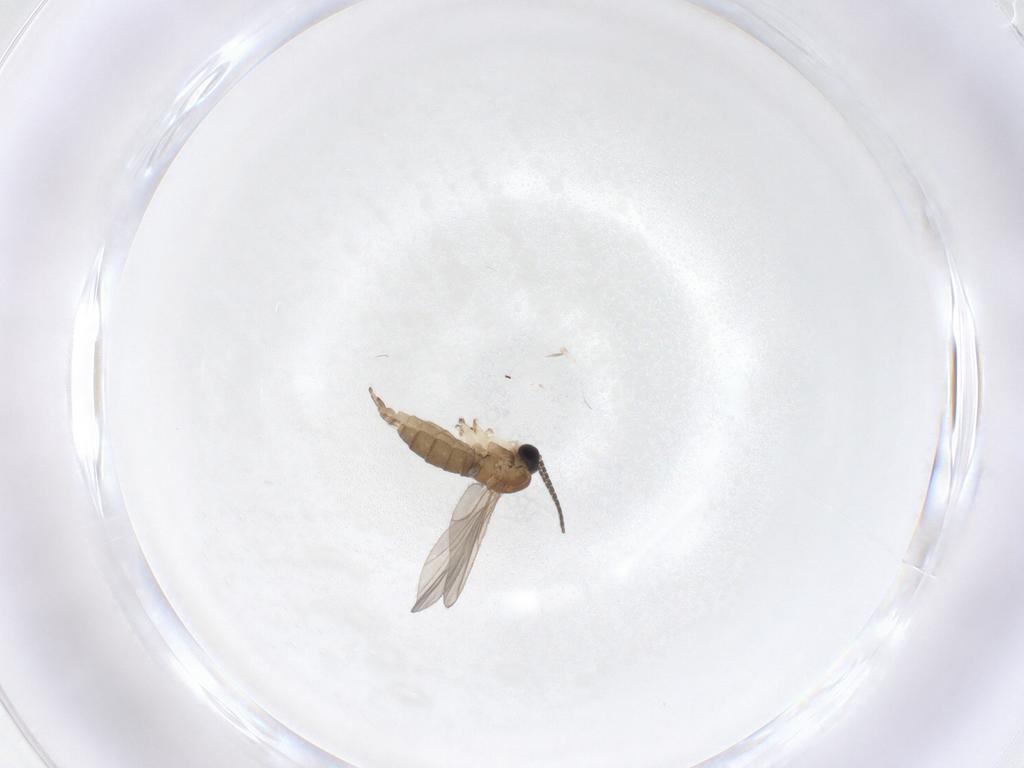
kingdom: Animalia
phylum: Arthropoda
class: Insecta
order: Diptera
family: Sciaridae
